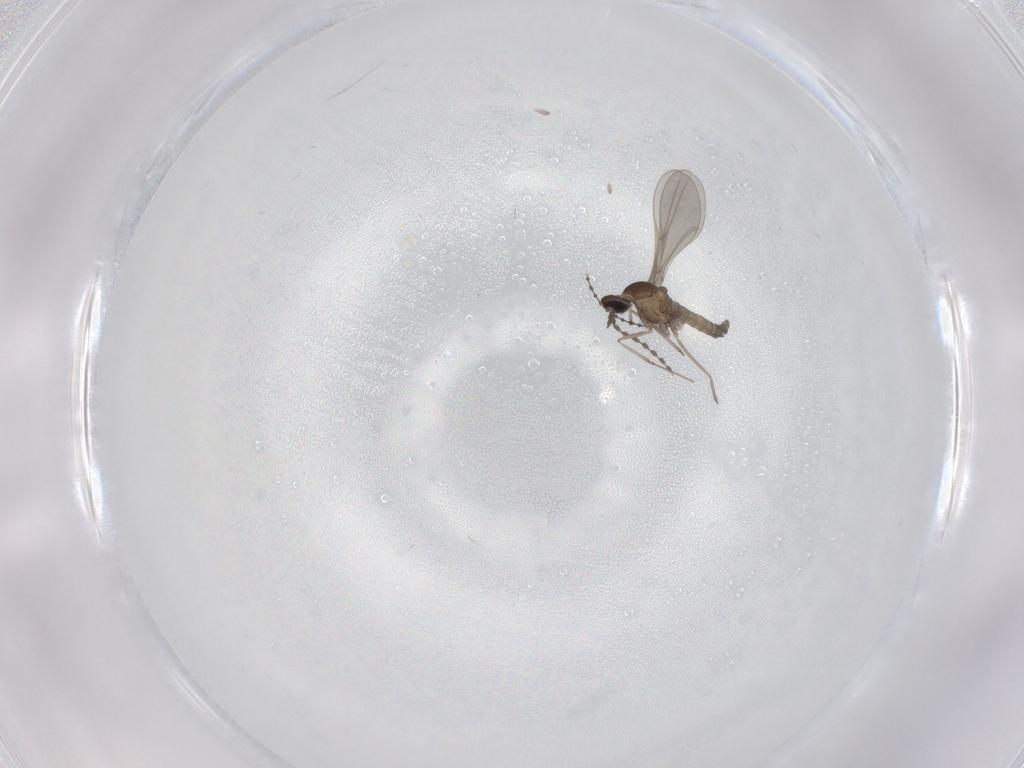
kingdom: Animalia
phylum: Arthropoda
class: Insecta
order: Diptera
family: Cecidomyiidae
